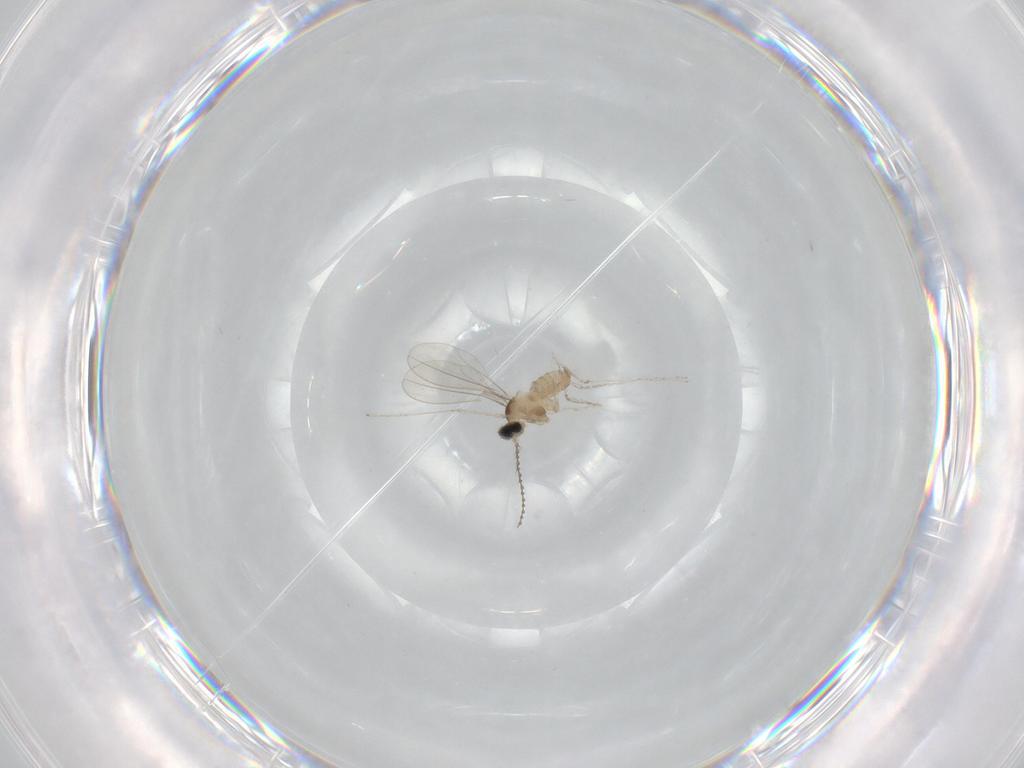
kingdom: Animalia
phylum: Arthropoda
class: Insecta
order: Diptera
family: Cecidomyiidae
